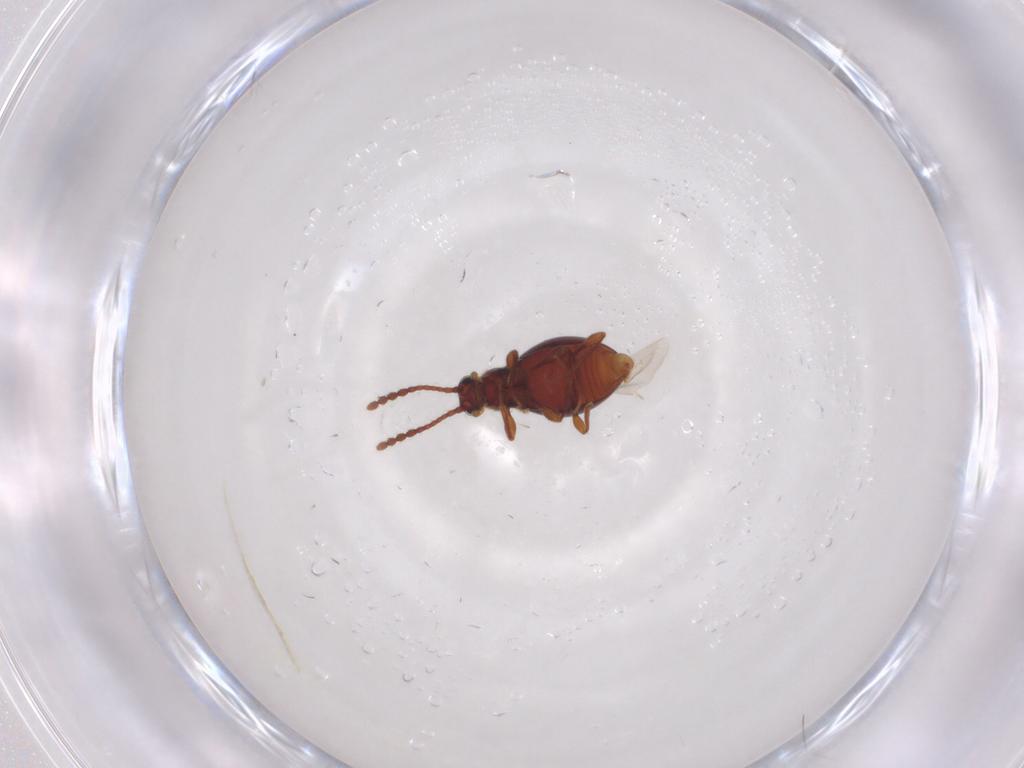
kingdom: Animalia
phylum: Arthropoda
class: Insecta
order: Coleoptera
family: Staphylinidae
